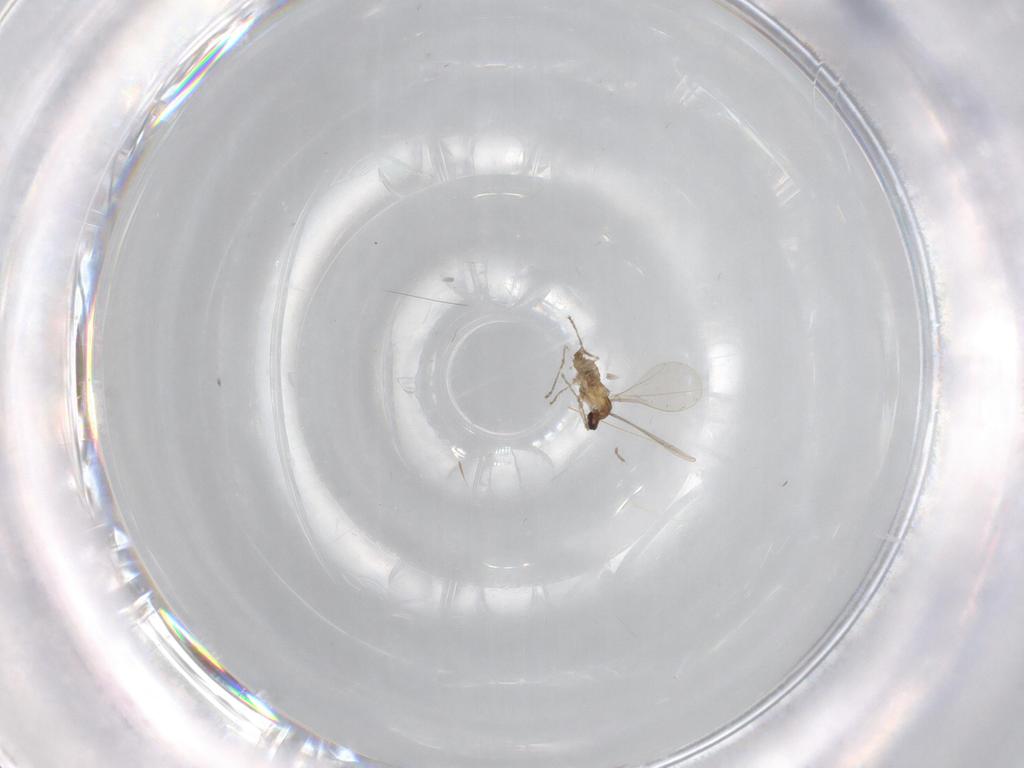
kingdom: Animalia
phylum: Arthropoda
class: Insecta
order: Diptera
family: Cecidomyiidae
